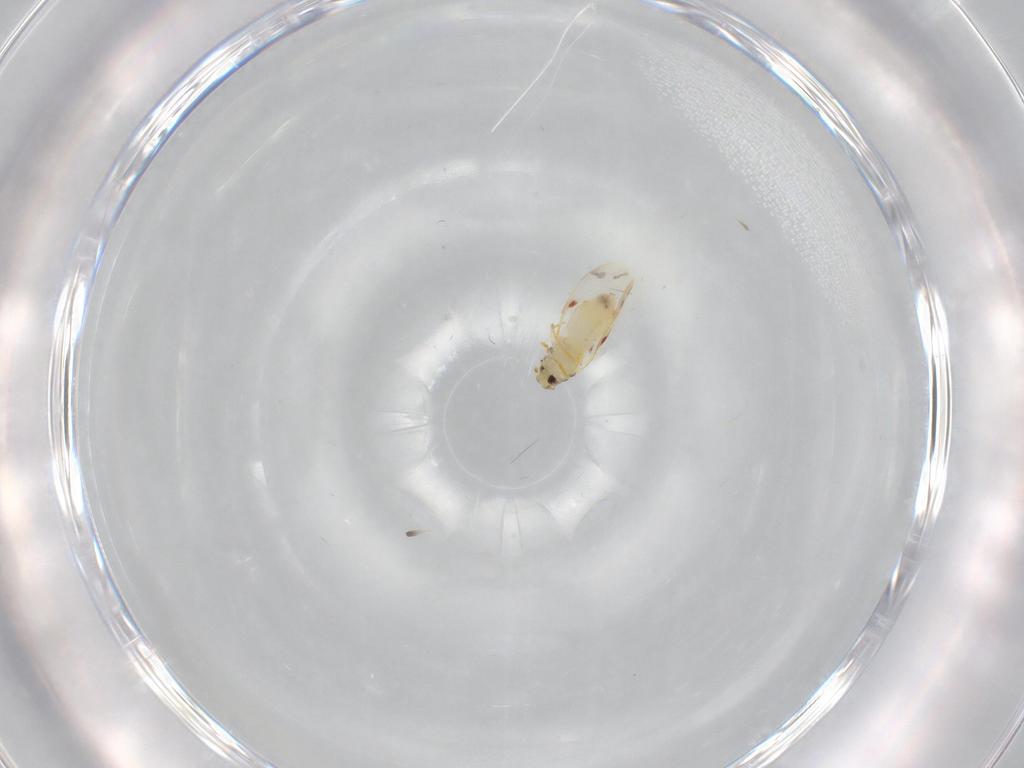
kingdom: Animalia
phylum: Arthropoda
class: Insecta
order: Hemiptera
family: Aleyrodidae
